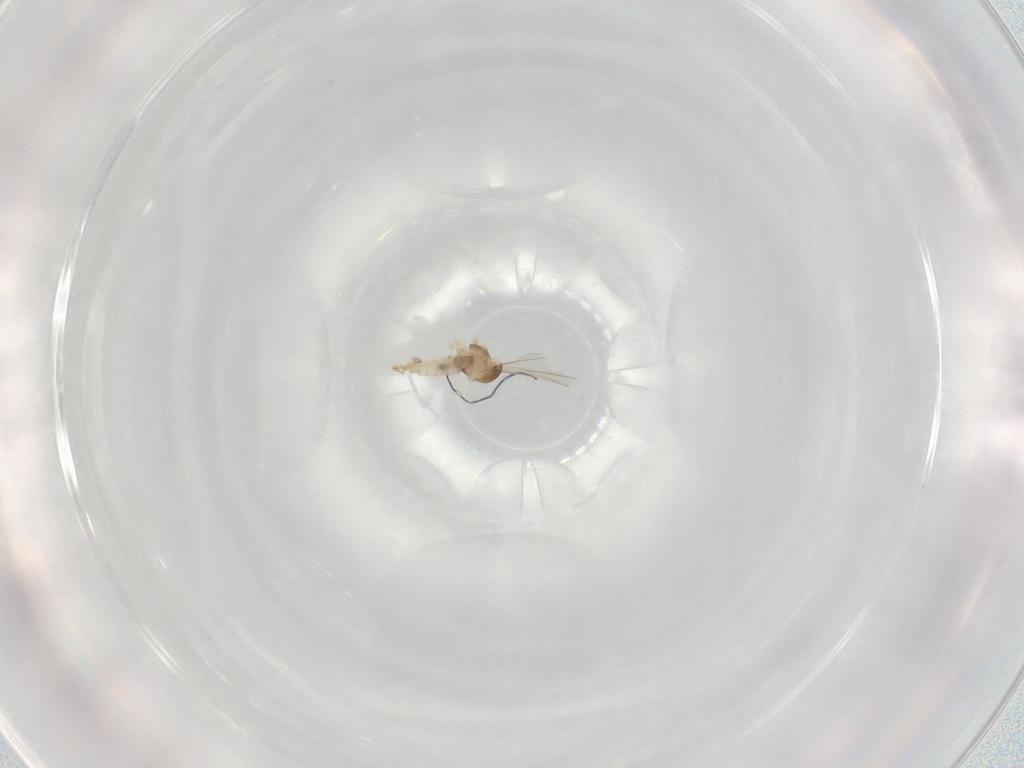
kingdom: Animalia
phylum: Arthropoda
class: Insecta
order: Diptera
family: Cecidomyiidae
